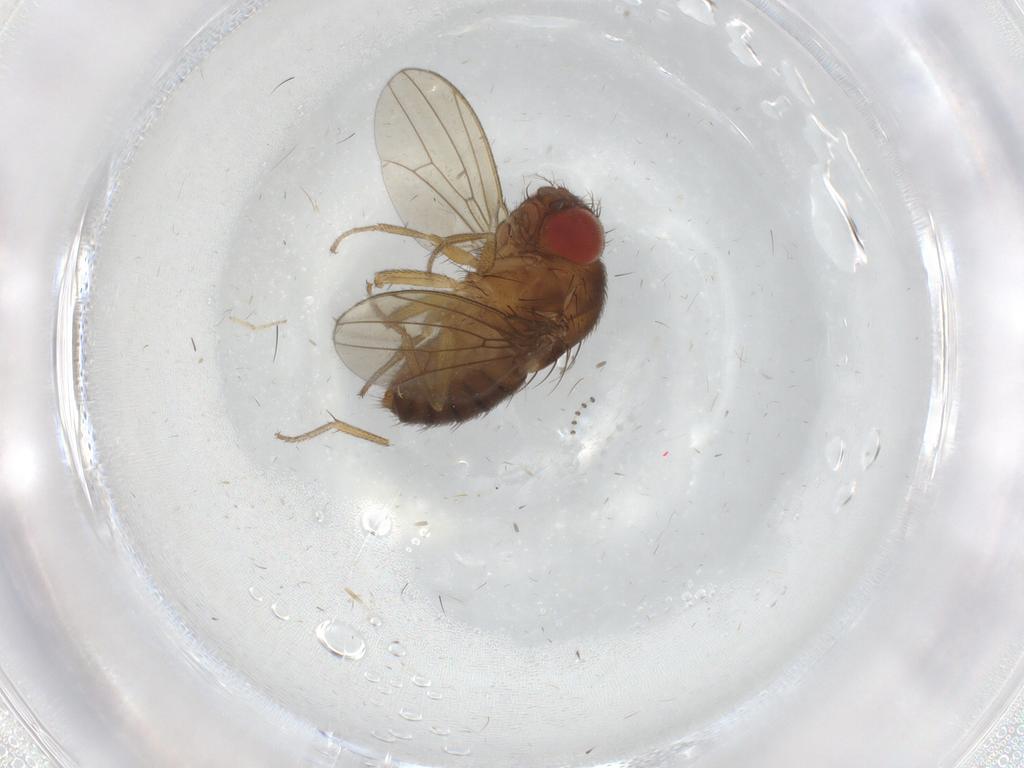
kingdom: Animalia
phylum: Arthropoda
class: Insecta
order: Diptera
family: Drosophilidae
